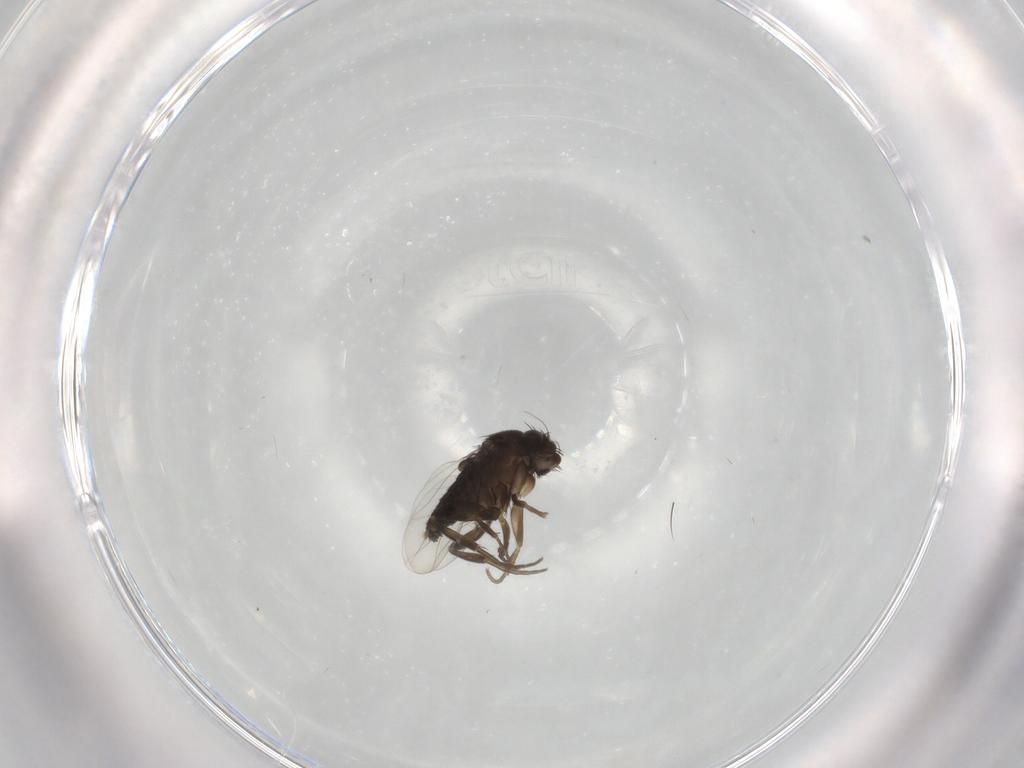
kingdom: Animalia
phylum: Arthropoda
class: Insecta
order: Diptera
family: Phoridae
